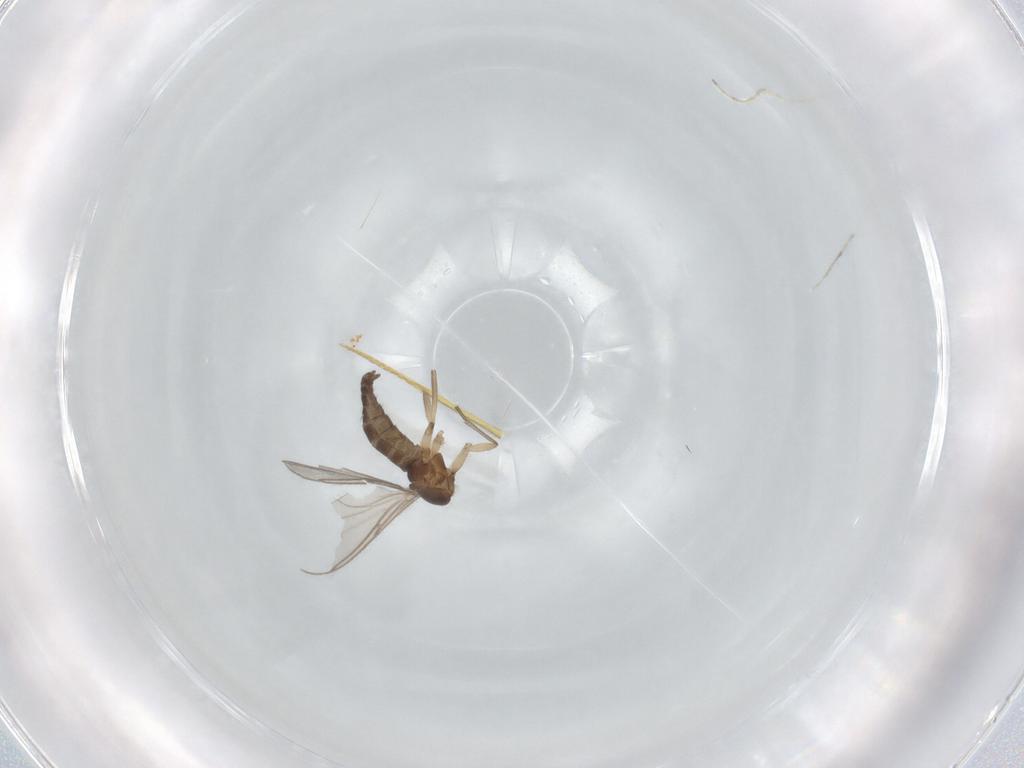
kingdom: Animalia
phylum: Arthropoda
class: Insecta
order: Diptera
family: Sciaridae
